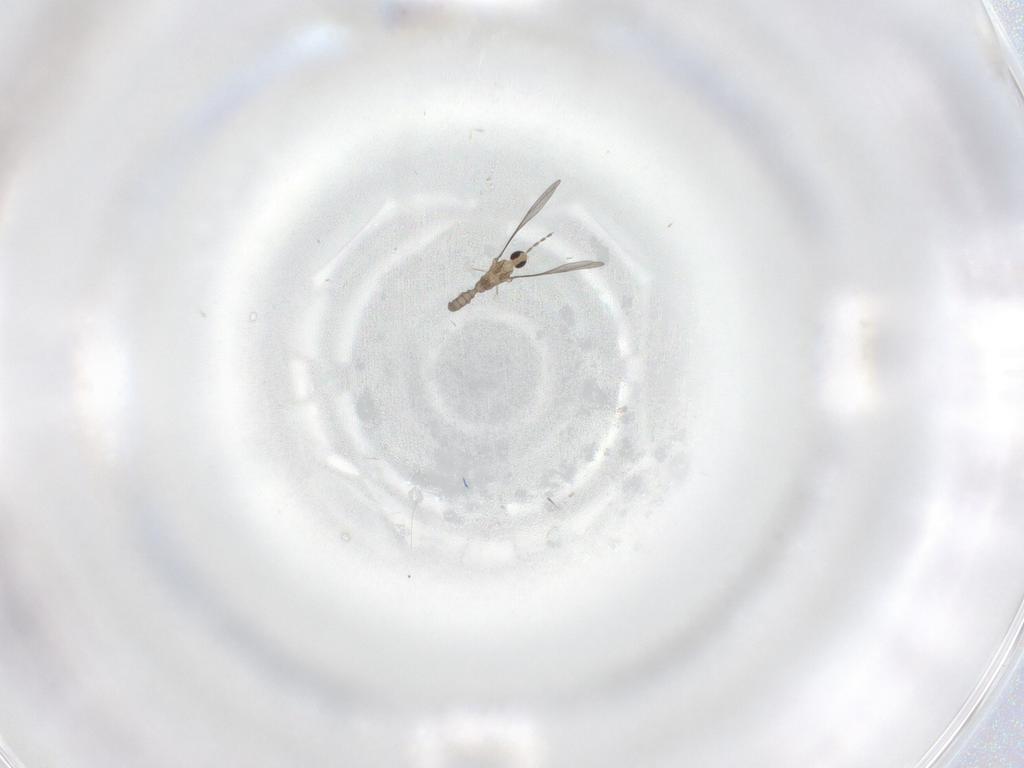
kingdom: Animalia
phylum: Arthropoda
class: Insecta
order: Diptera
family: Cecidomyiidae
